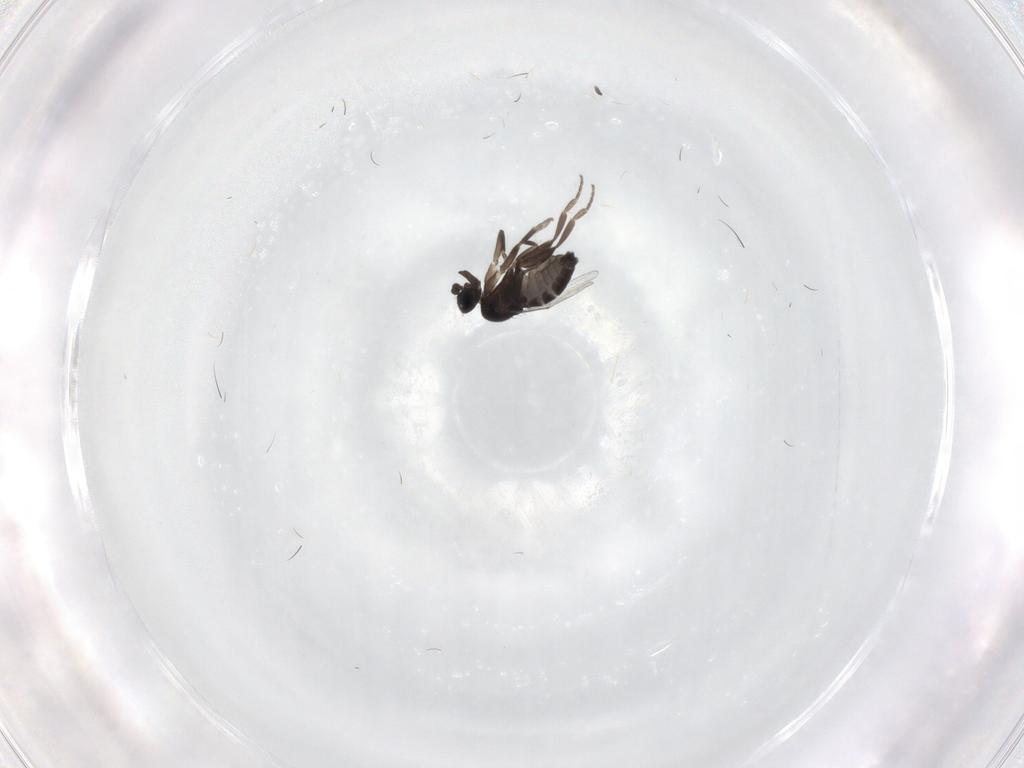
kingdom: Animalia
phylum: Arthropoda
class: Insecta
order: Diptera
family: Phoridae
